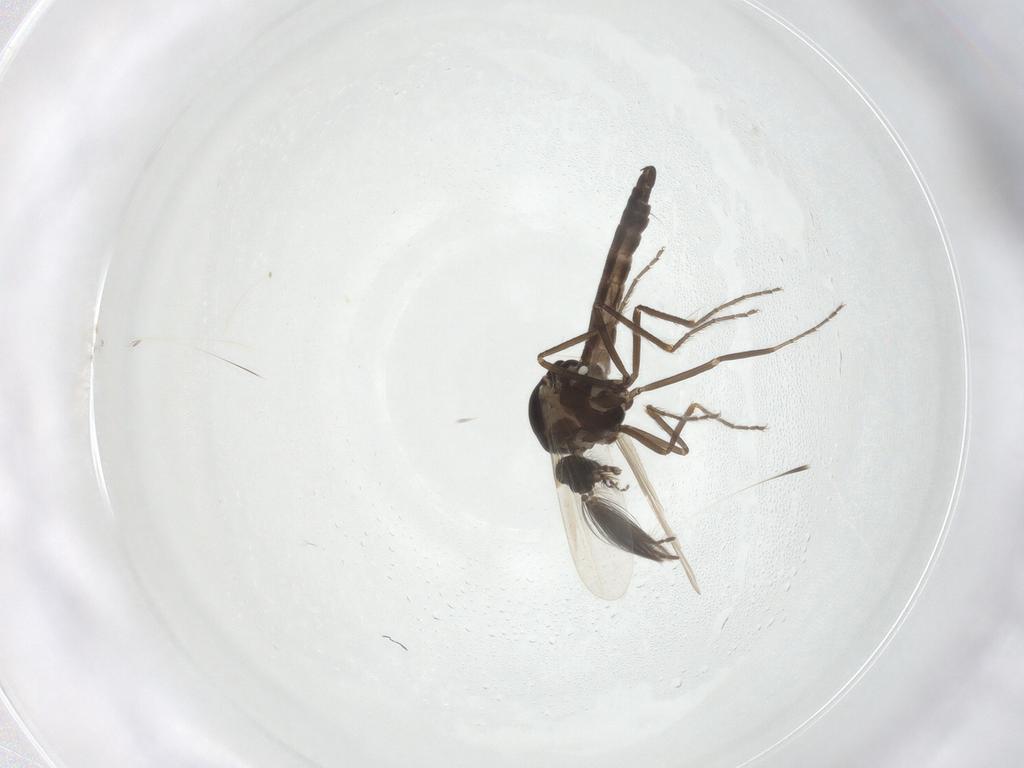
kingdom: Animalia
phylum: Arthropoda
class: Insecta
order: Diptera
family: Ceratopogonidae
